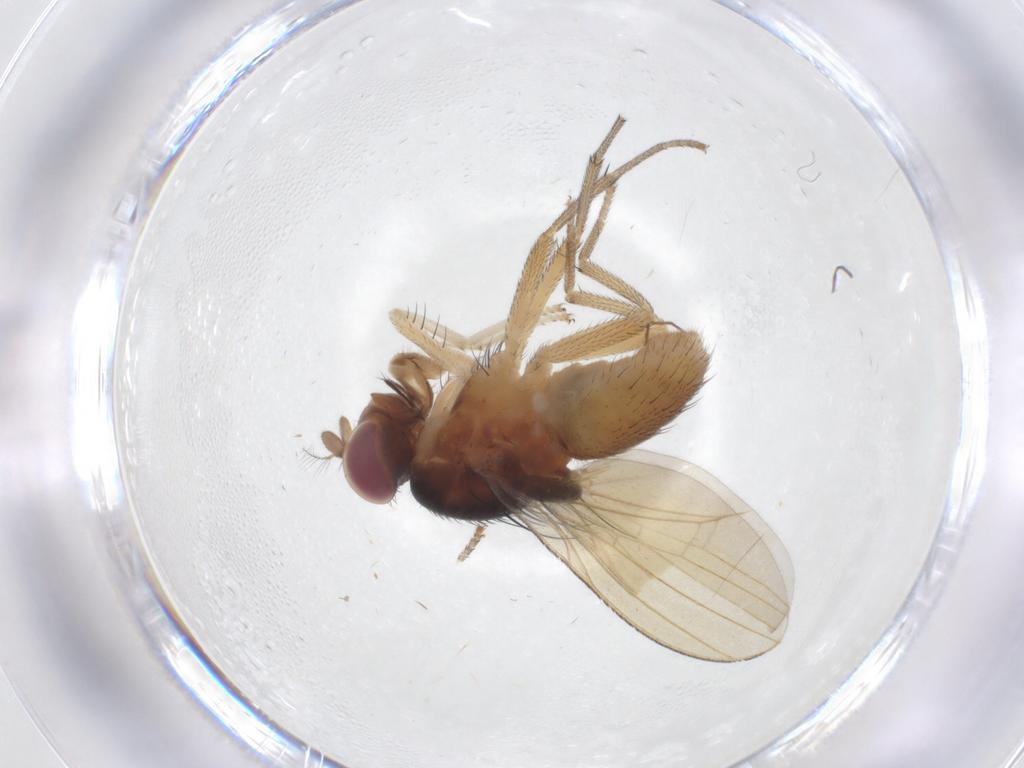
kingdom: Animalia
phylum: Arthropoda
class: Insecta
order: Diptera
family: Lauxaniidae
